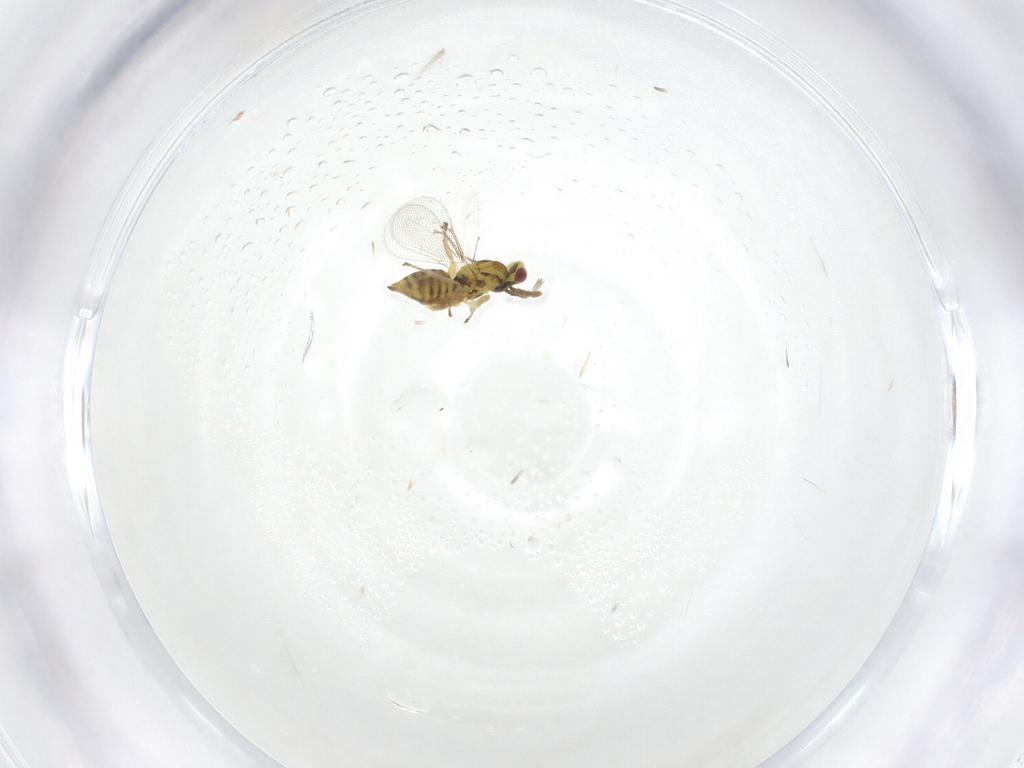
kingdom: Animalia
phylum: Arthropoda
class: Insecta
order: Hymenoptera
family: Eulophidae
